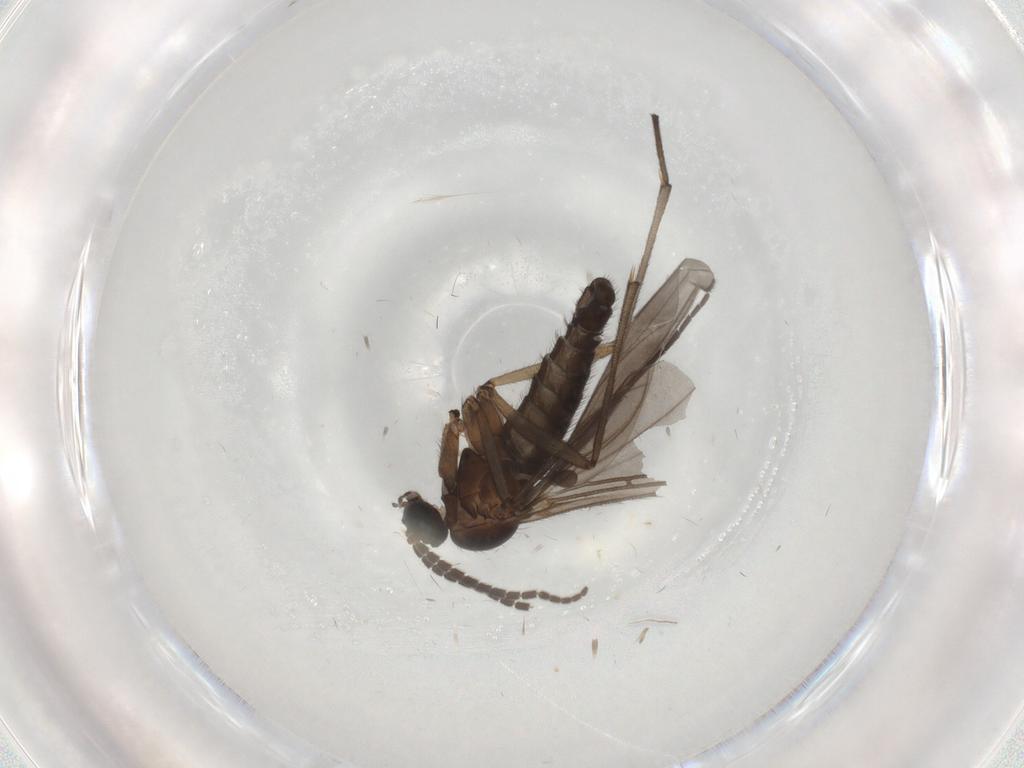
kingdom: Animalia
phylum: Arthropoda
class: Insecta
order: Diptera
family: Sciaridae
